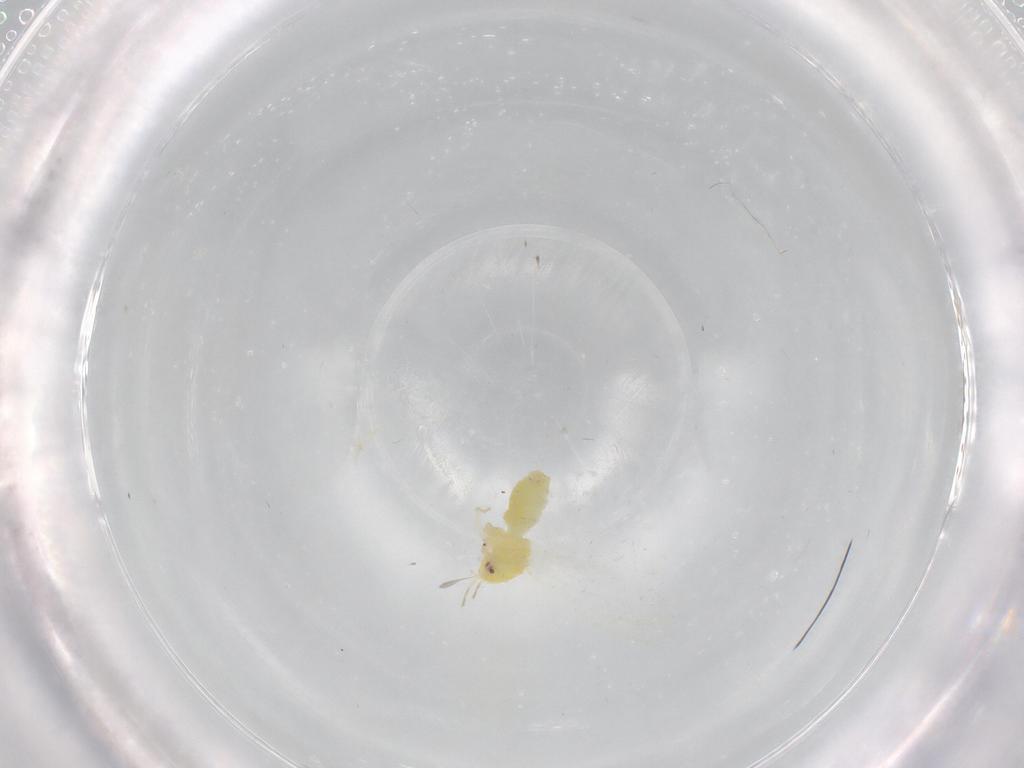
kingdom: Animalia
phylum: Arthropoda
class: Insecta
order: Hemiptera
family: Aleyrodidae
